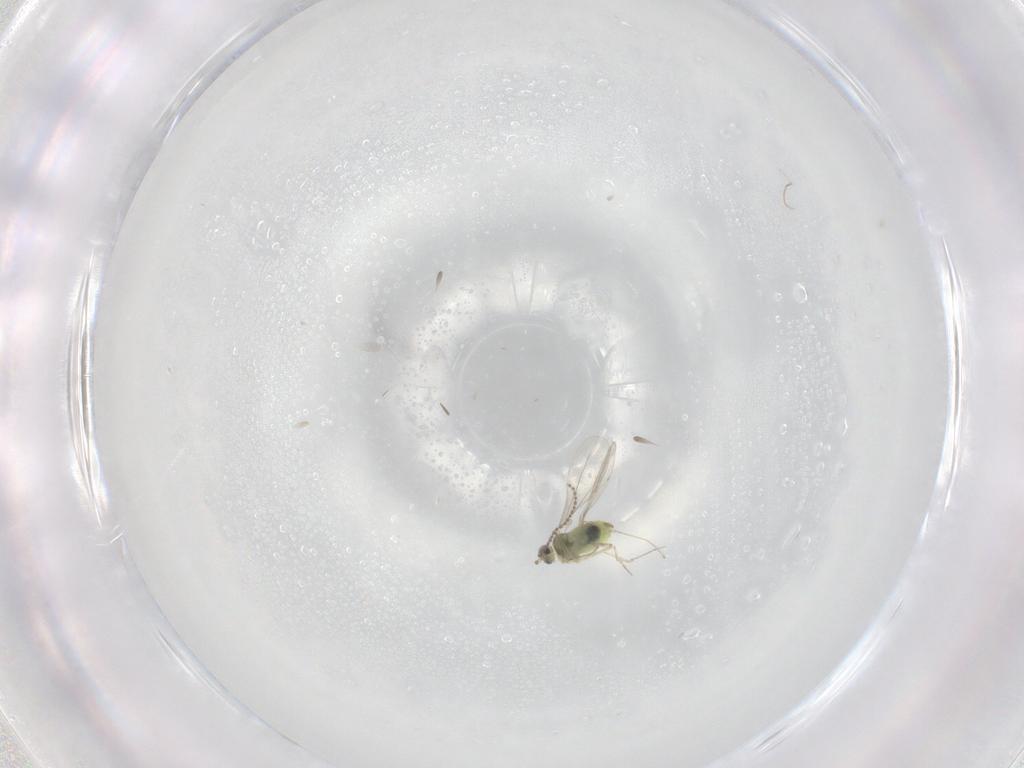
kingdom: Animalia
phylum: Arthropoda
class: Insecta
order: Diptera
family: Cecidomyiidae
